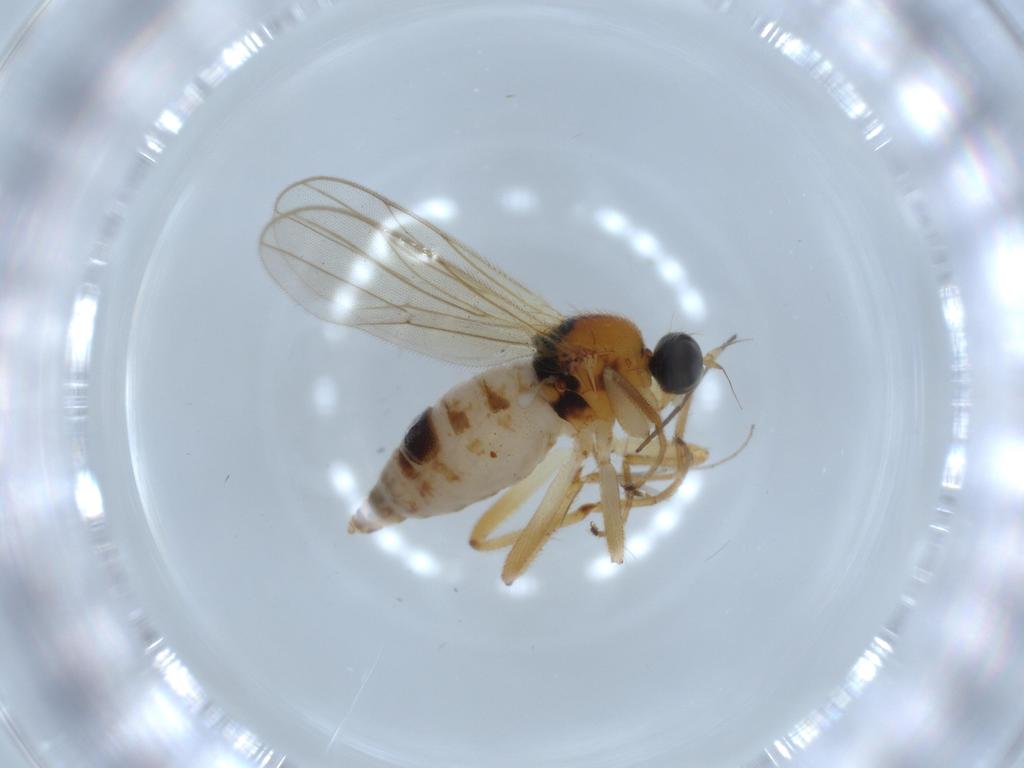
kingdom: Animalia
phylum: Arthropoda
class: Insecta
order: Diptera
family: Hybotidae
